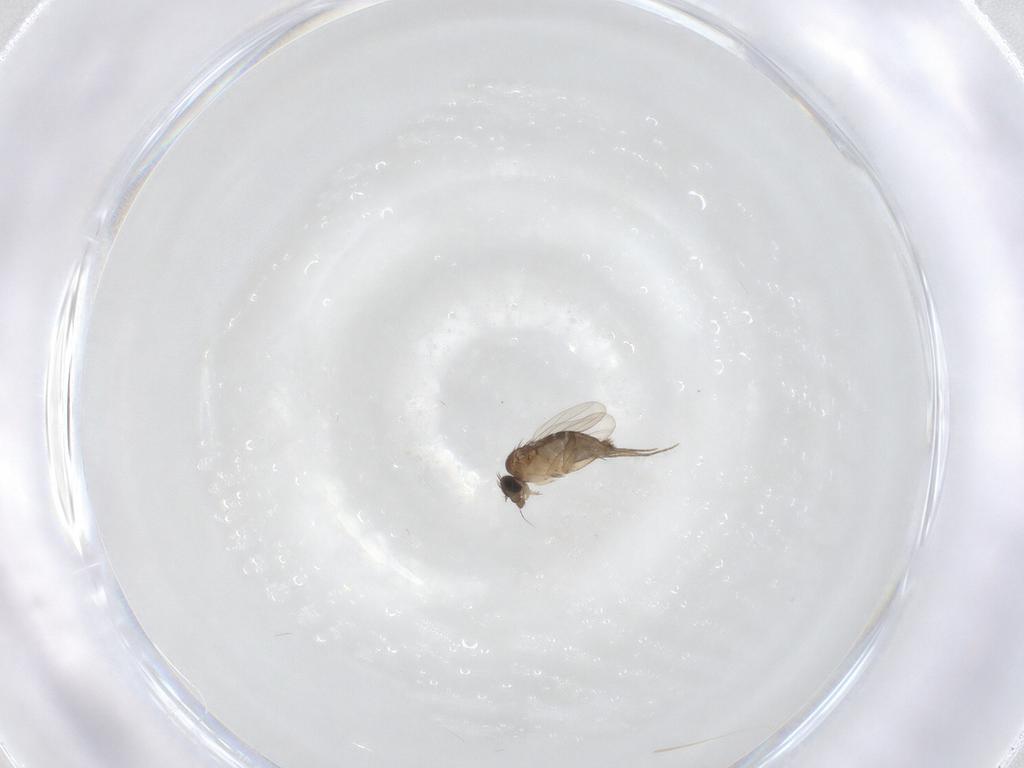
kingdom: Animalia
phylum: Arthropoda
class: Insecta
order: Diptera
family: Phoridae
